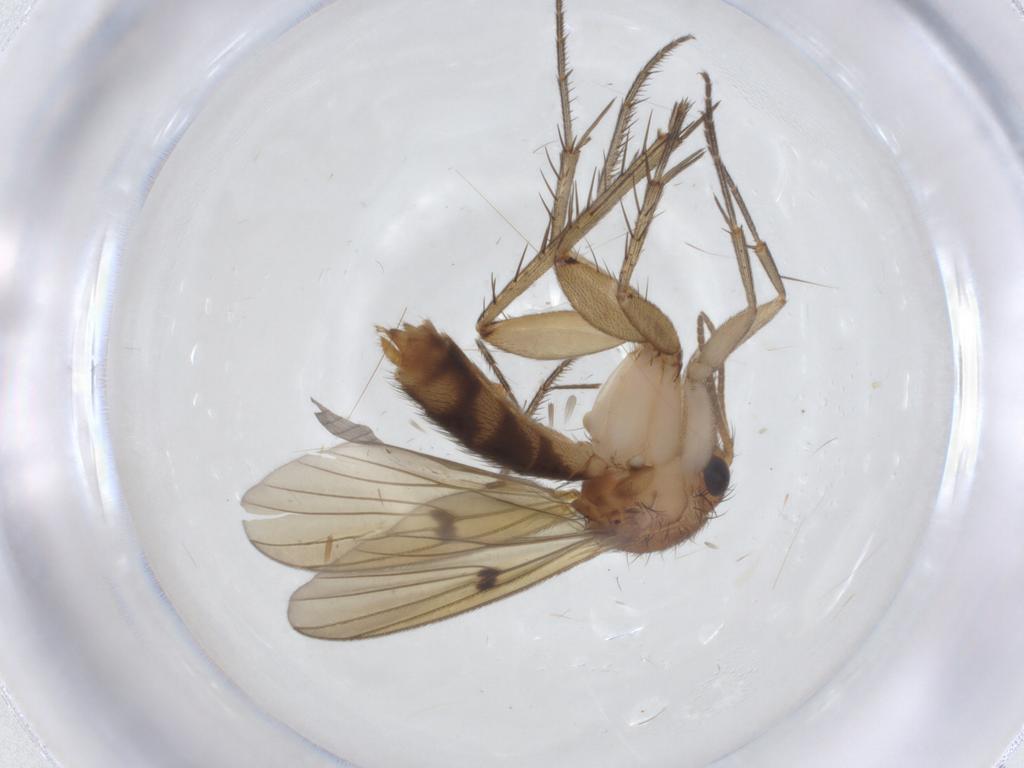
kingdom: Animalia
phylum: Arthropoda
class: Insecta
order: Diptera
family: Mycetophilidae
